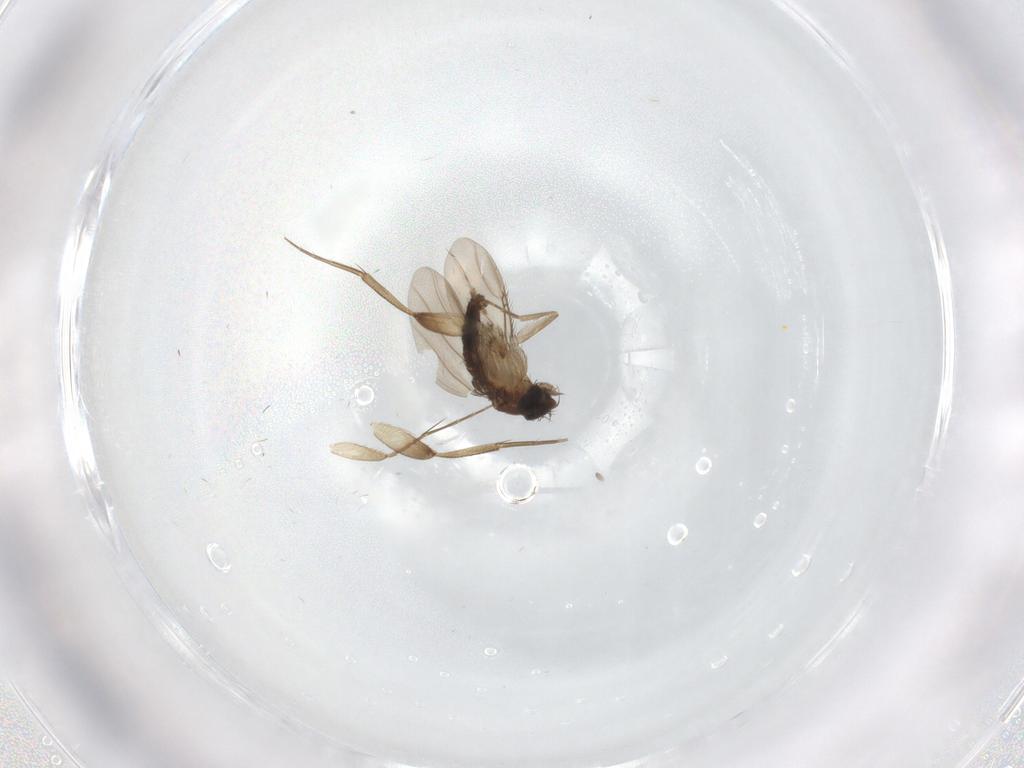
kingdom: Animalia
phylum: Arthropoda
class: Insecta
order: Diptera
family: Phoridae
